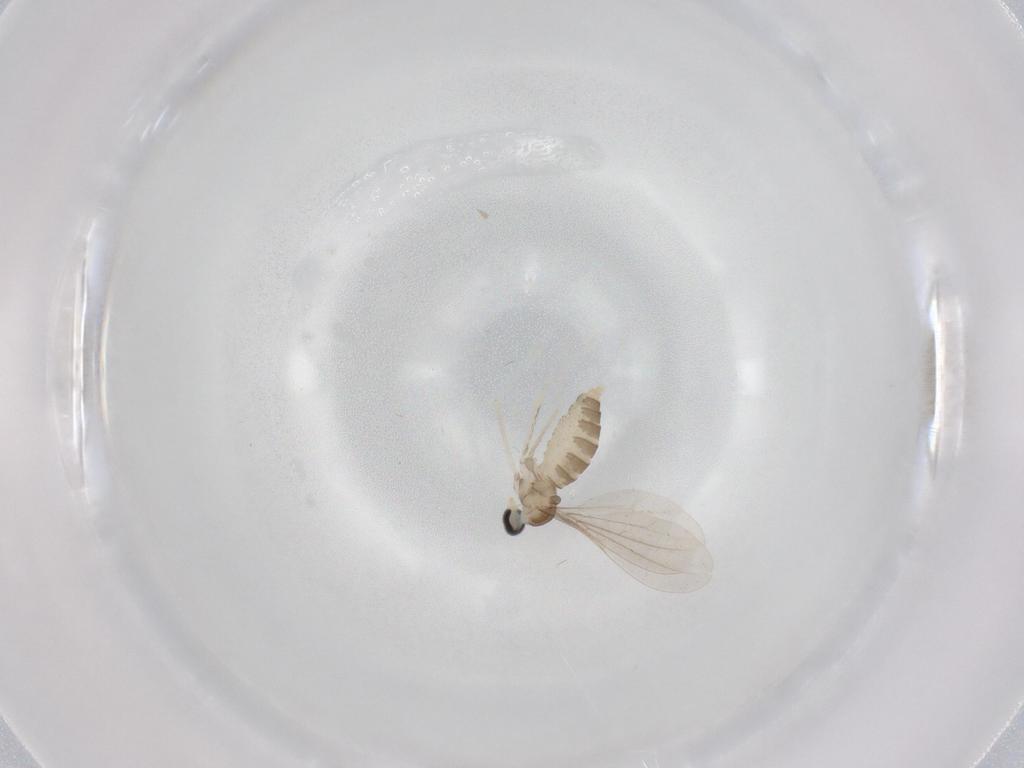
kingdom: Animalia
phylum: Arthropoda
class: Insecta
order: Diptera
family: Cecidomyiidae
